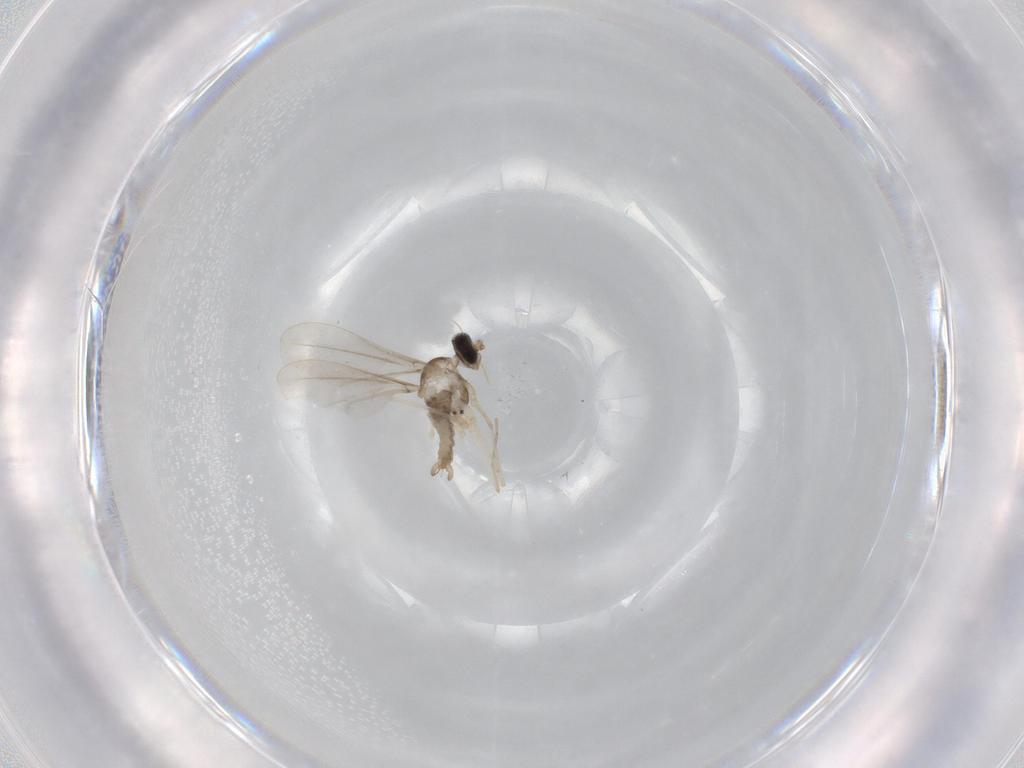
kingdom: Animalia
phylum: Arthropoda
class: Insecta
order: Diptera
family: Cecidomyiidae
